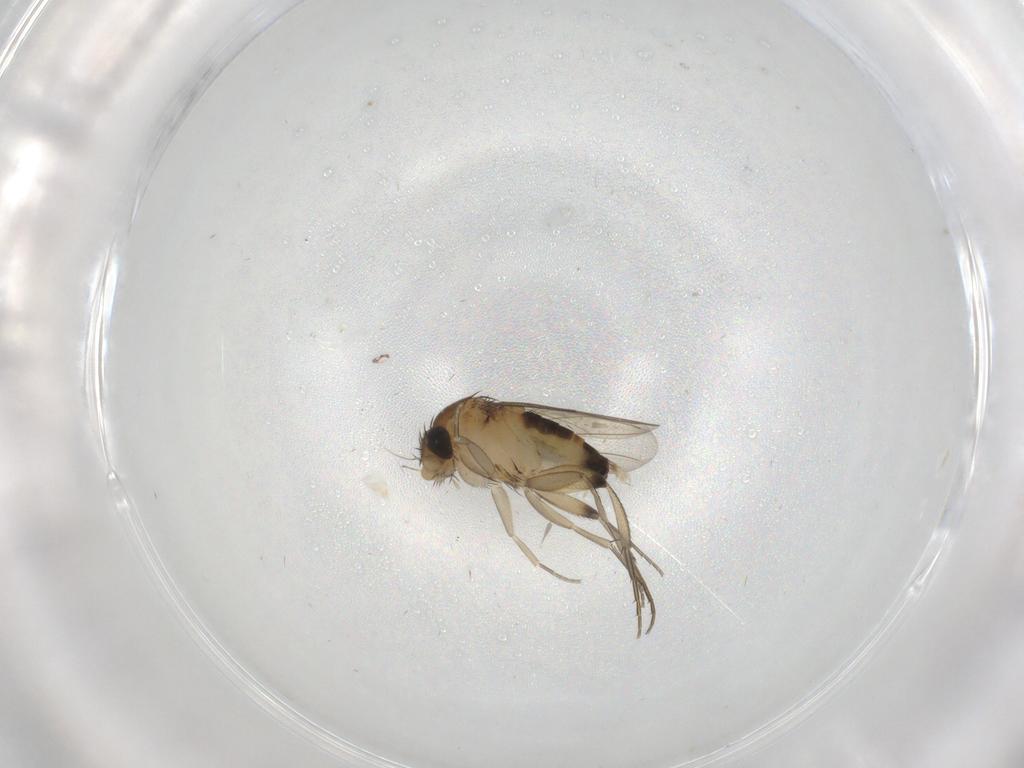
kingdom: Animalia
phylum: Arthropoda
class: Insecta
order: Diptera
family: Phoridae
